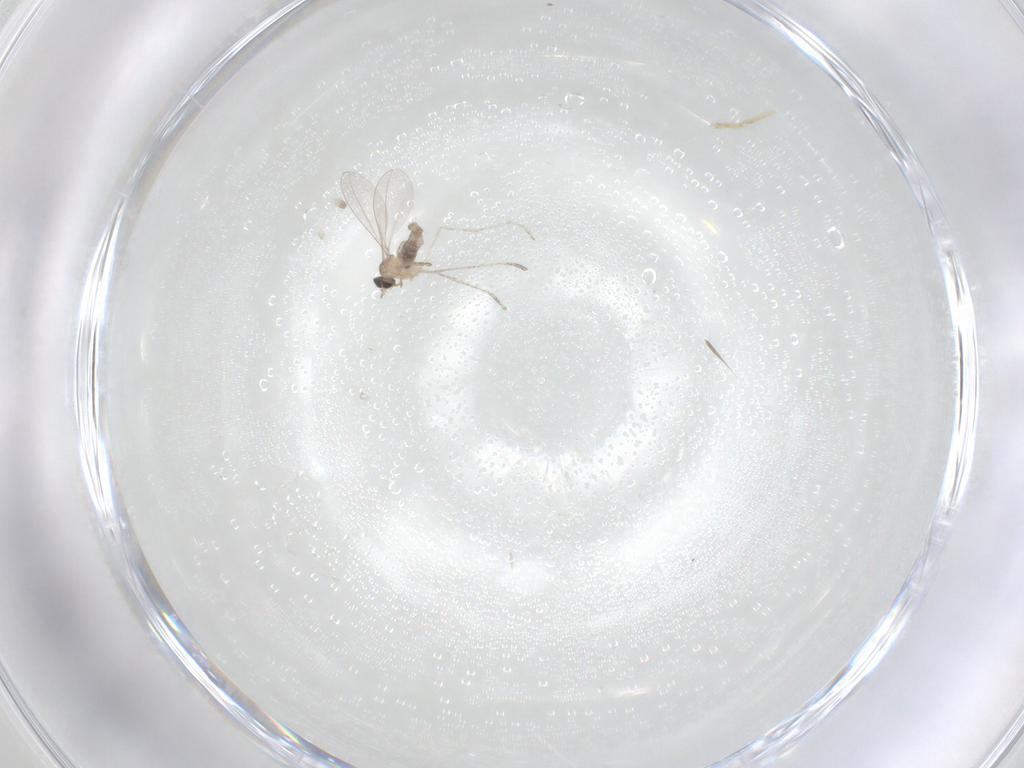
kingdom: Animalia
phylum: Arthropoda
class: Insecta
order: Diptera
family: Cecidomyiidae
